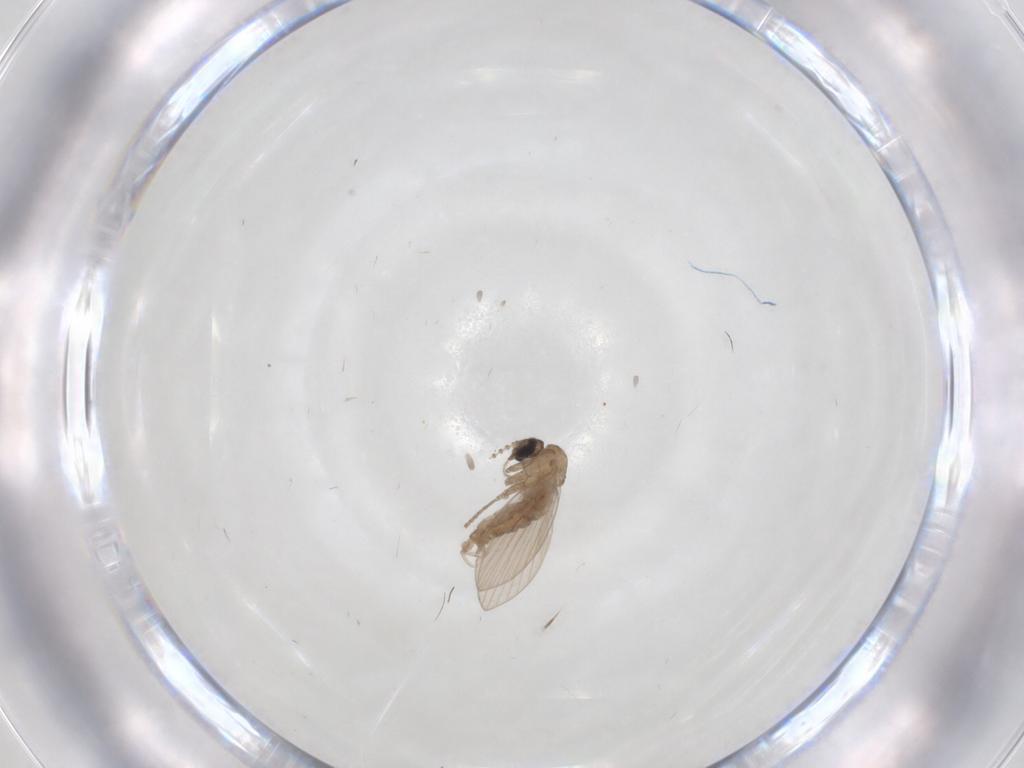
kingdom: Animalia
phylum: Arthropoda
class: Insecta
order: Diptera
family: Psychodidae
